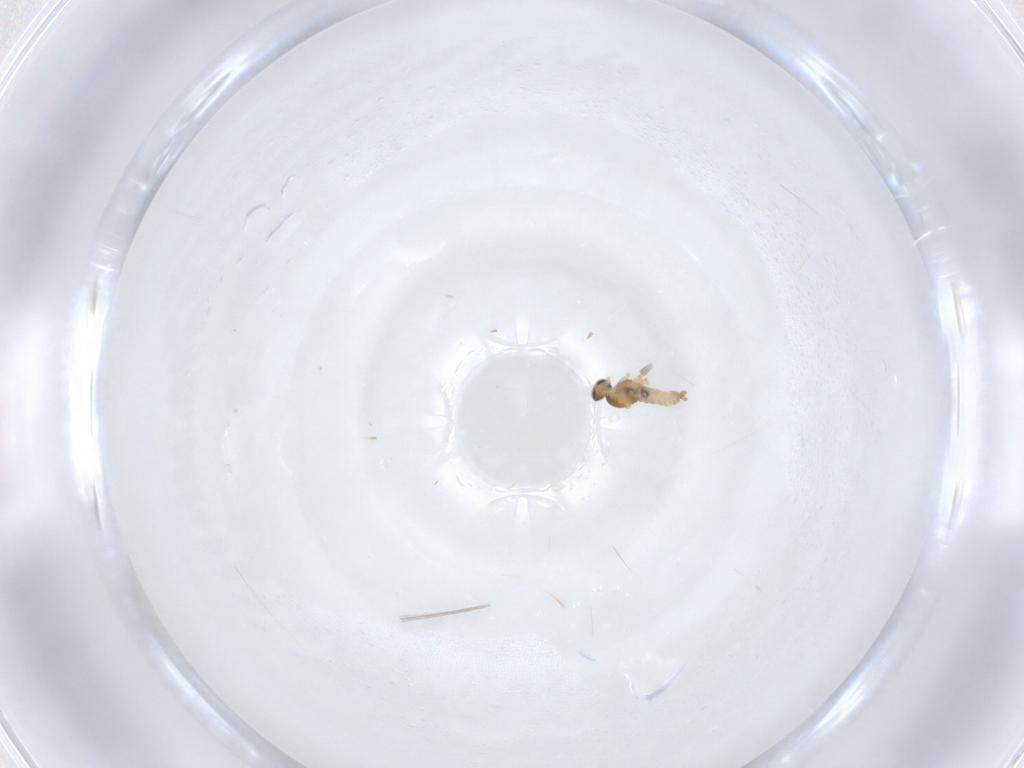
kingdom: Animalia
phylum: Arthropoda
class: Insecta
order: Diptera
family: Cecidomyiidae
